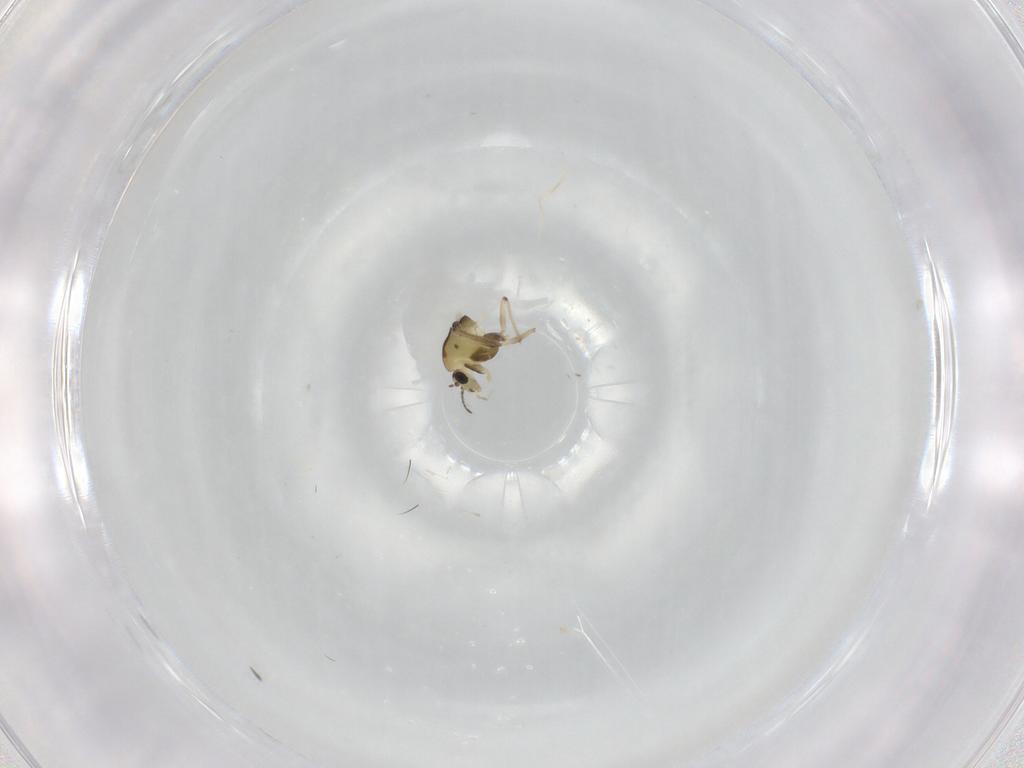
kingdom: Animalia
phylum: Arthropoda
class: Insecta
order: Diptera
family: Chironomidae
